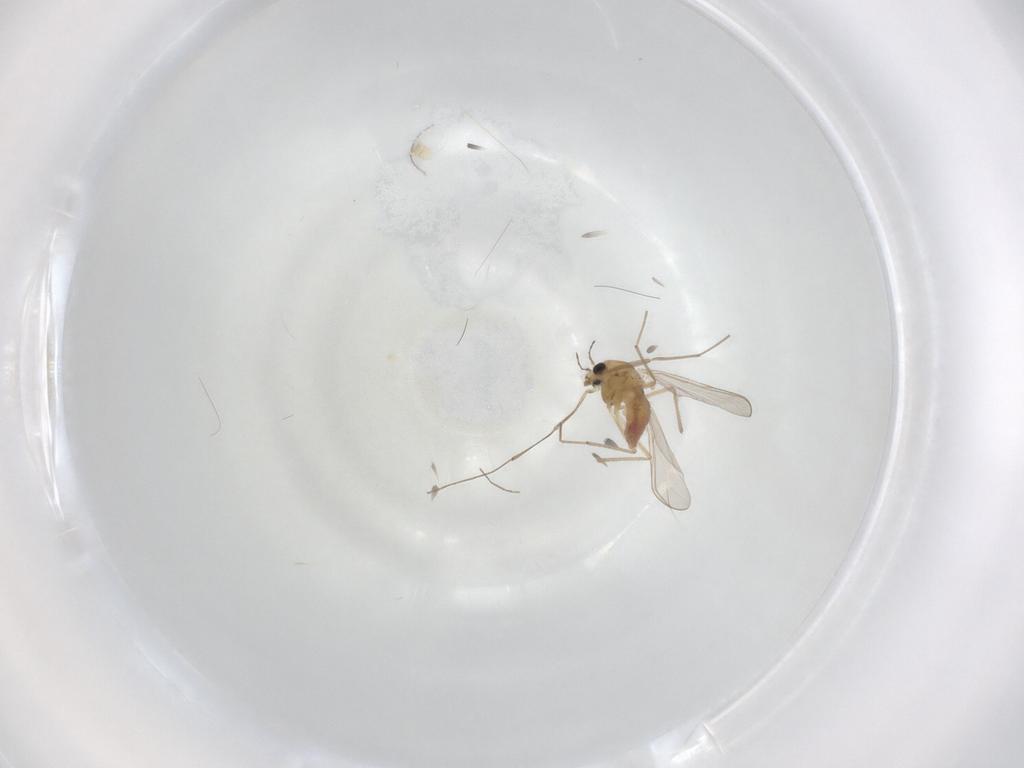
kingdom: Animalia
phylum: Arthropoda
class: Insecta
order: Diptera
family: Chironomidae
